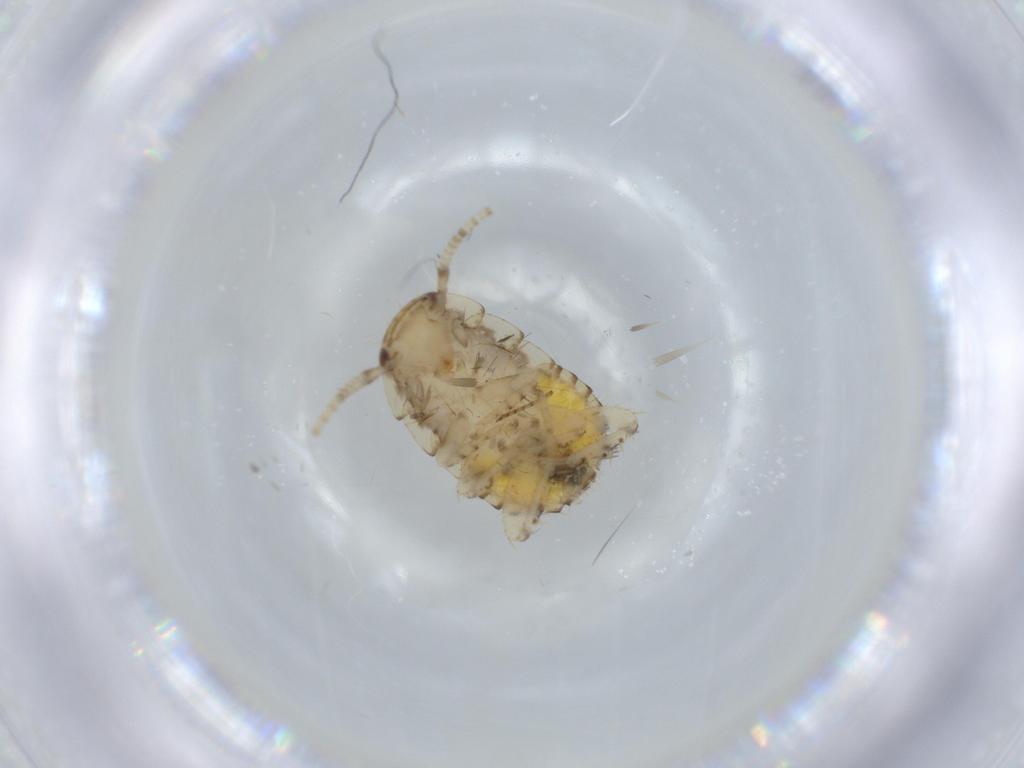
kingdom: Animalia
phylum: Arthropoda
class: Insecta
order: Blattodea
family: Ectobiidae
